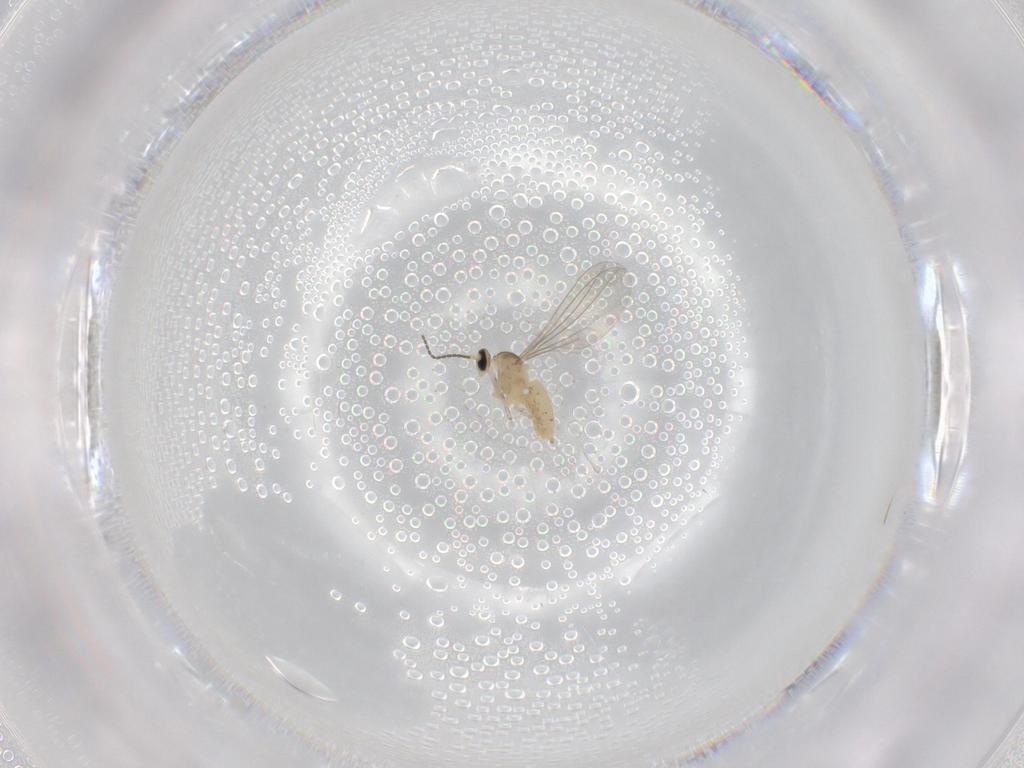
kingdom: Animalia
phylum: Arthropoda
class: Insecta
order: Diptera
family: Cecidomyiidae
